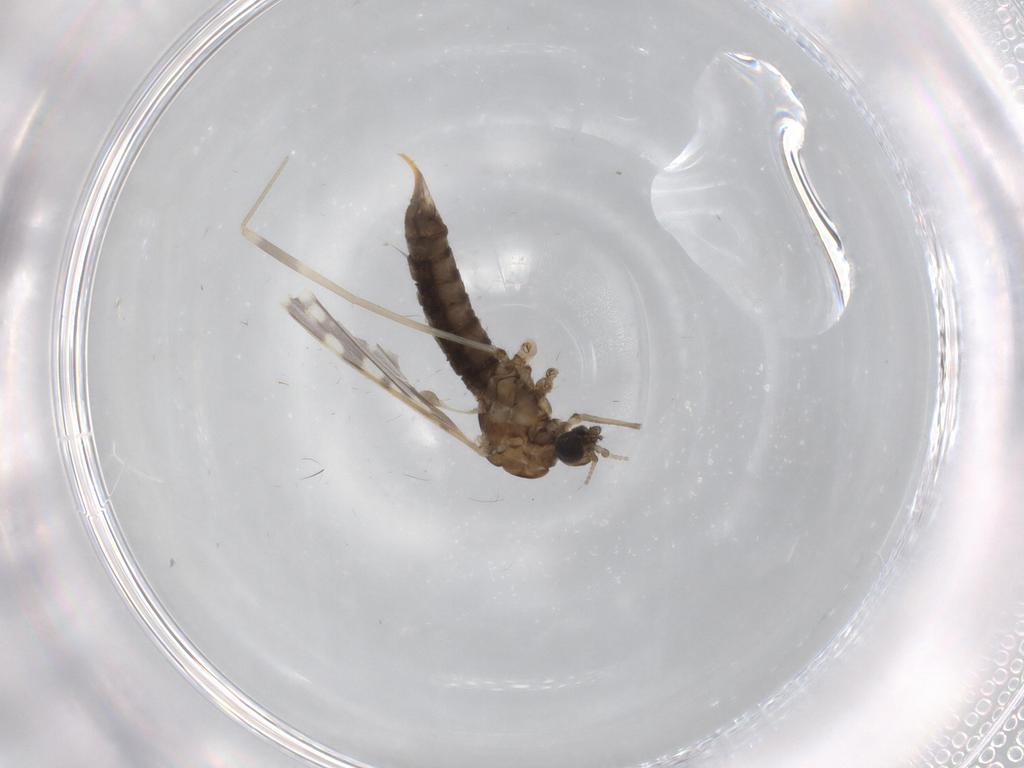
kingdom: Animalia
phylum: Arthropoda
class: Insecta
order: Diptera
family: Limoniidae
